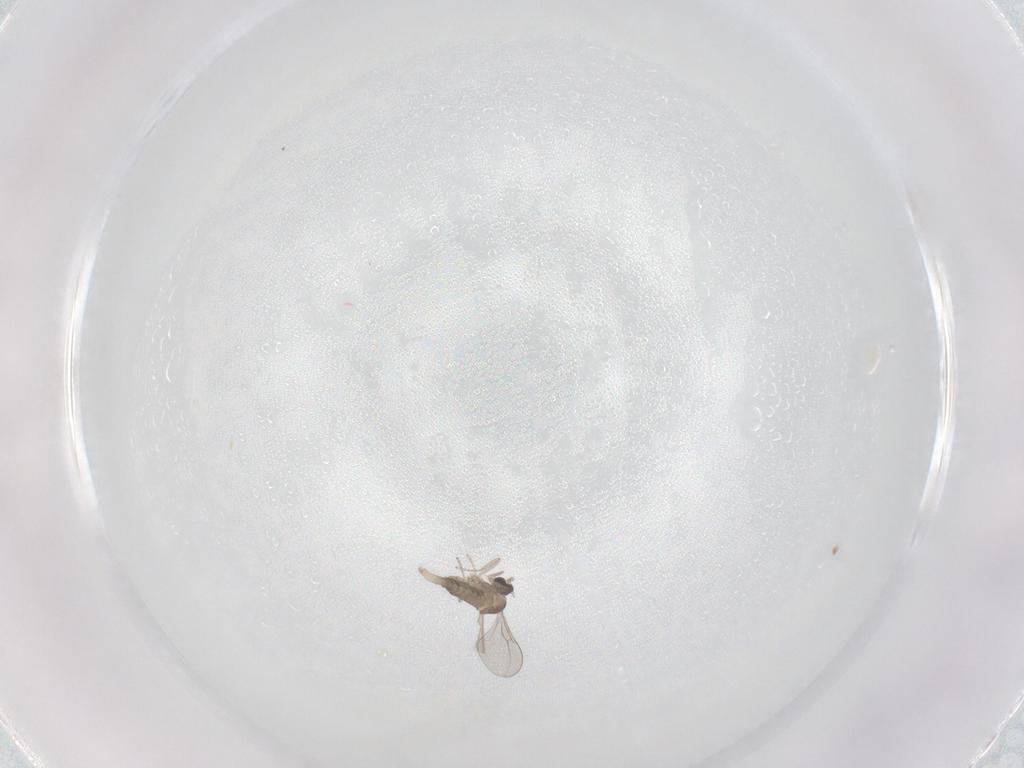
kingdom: Animalia
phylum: Arthropoda
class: Insecta
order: Diptera
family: Cecidomyiidae
